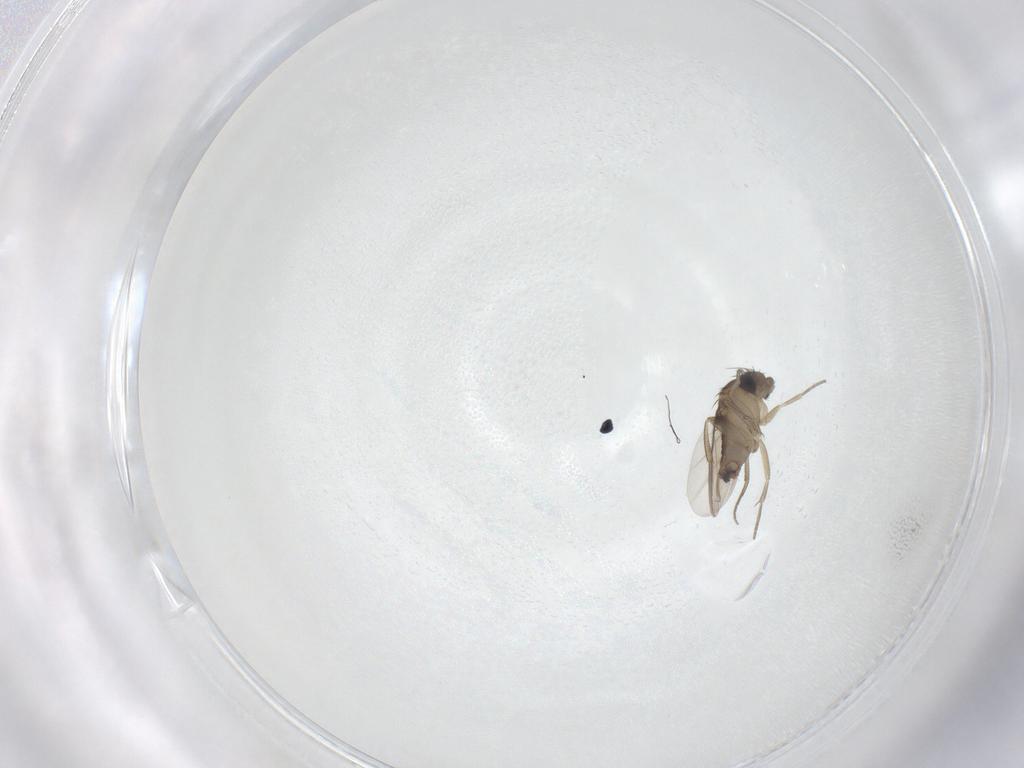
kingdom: Animalia
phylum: Arthropoda
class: Insecta
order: Diptera
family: Phoridae
